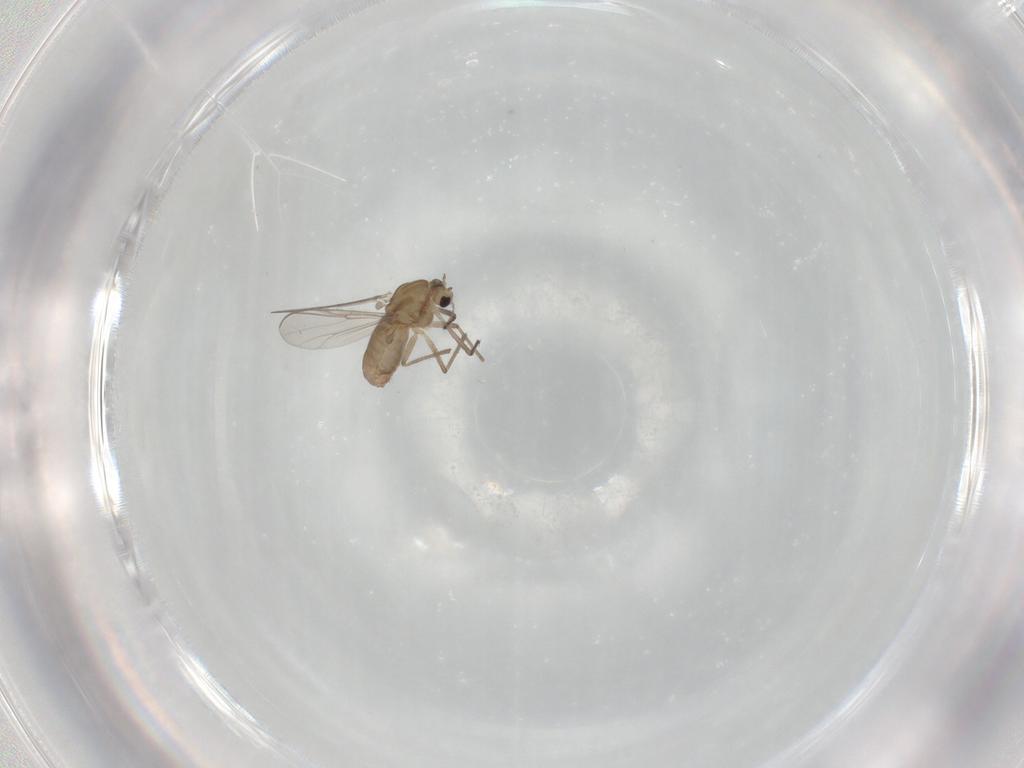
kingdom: Animalia
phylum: Arthropoda
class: Insecta
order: Diptera
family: Chironomidae
